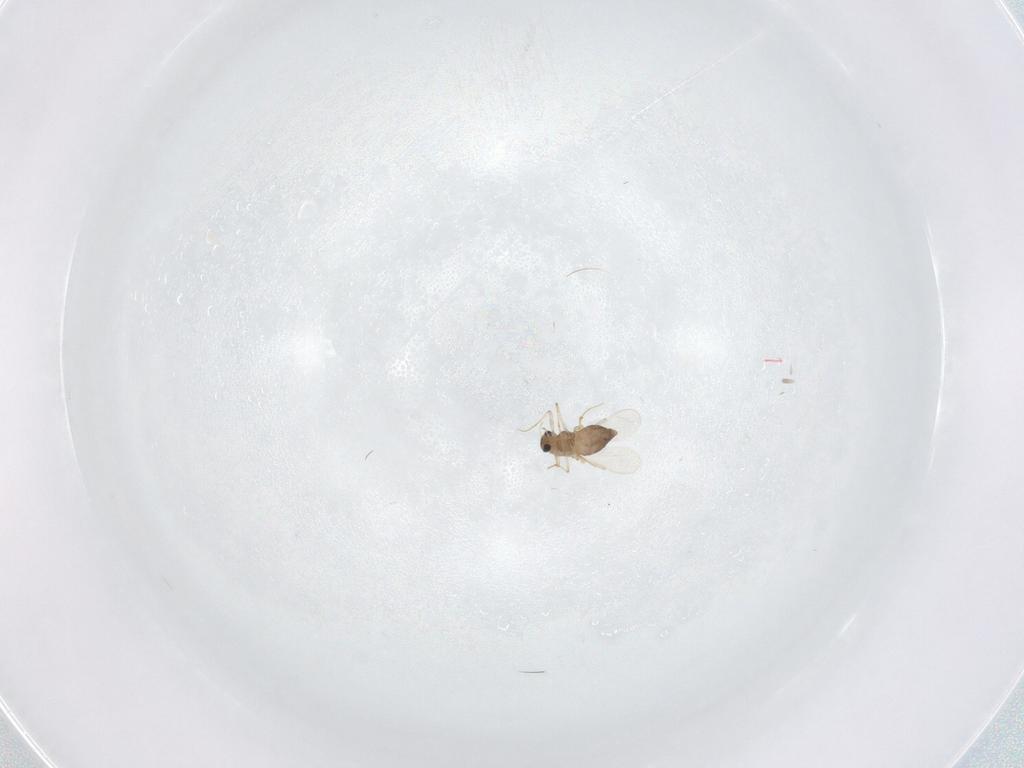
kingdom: Animalia
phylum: Arthropoda
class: Insecta
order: Diptera
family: Chironomidae
